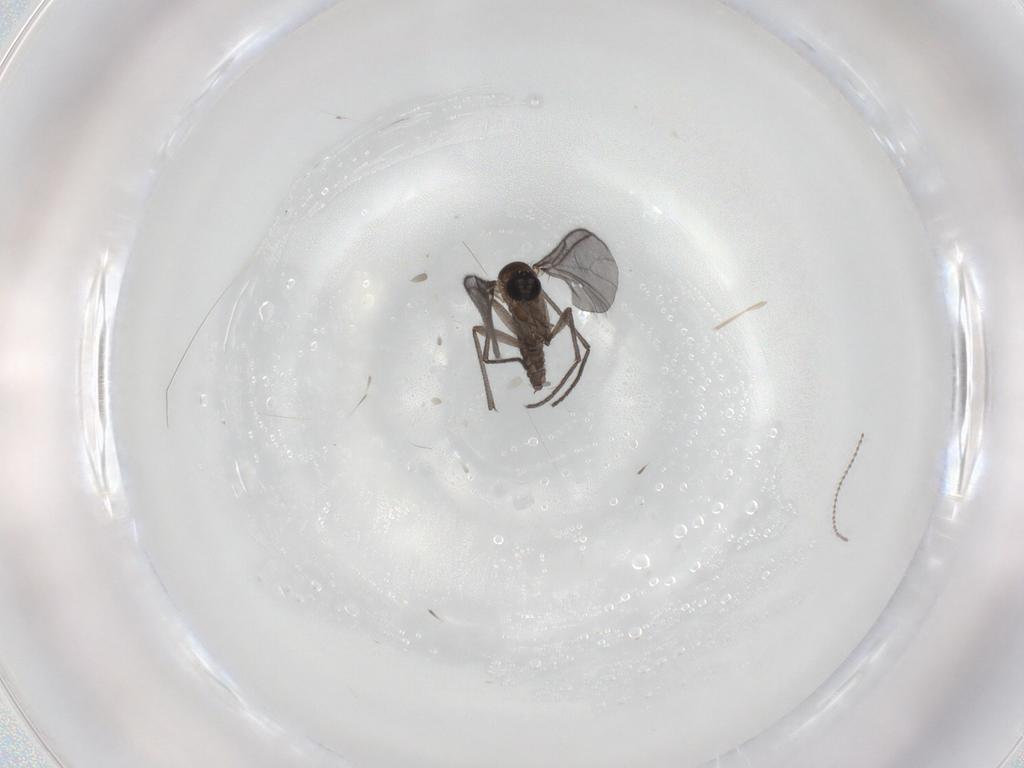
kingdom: Animalia
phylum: Arthropoda
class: Insecta
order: Diptera
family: Sciaridae
